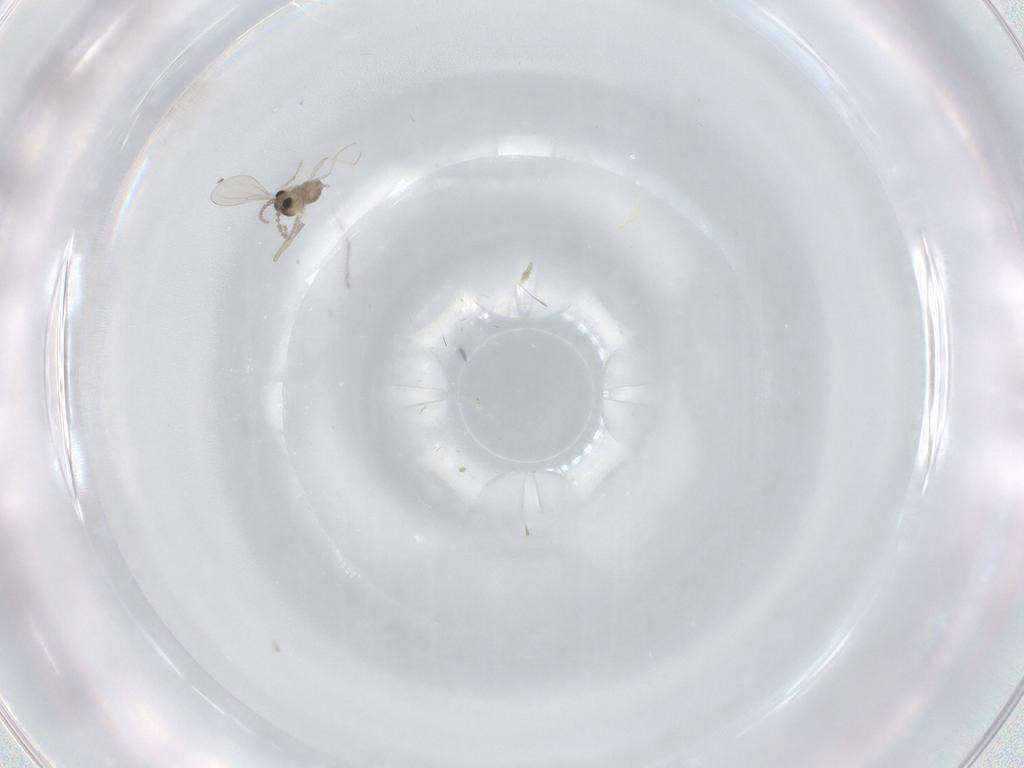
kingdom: Animalia
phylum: Arthropoda
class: Insecta
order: Diptera
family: Cecidomyiidae
